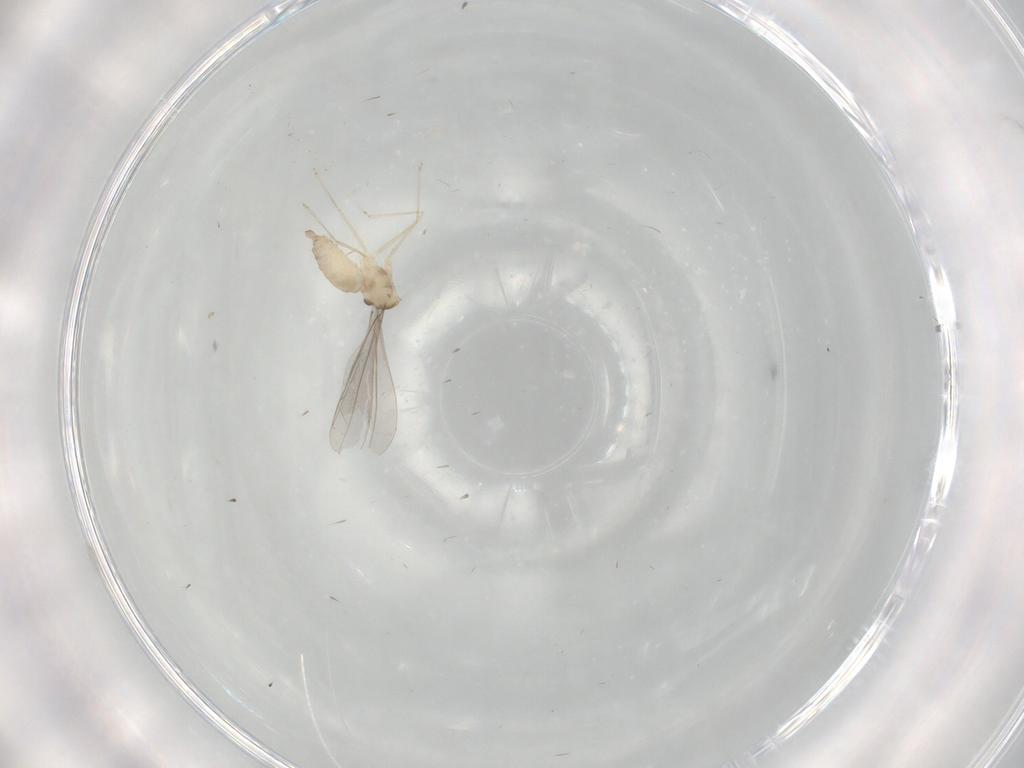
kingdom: Animalia
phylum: Arthropoda
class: Insecta
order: Diptera
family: Cecidomyiidae
